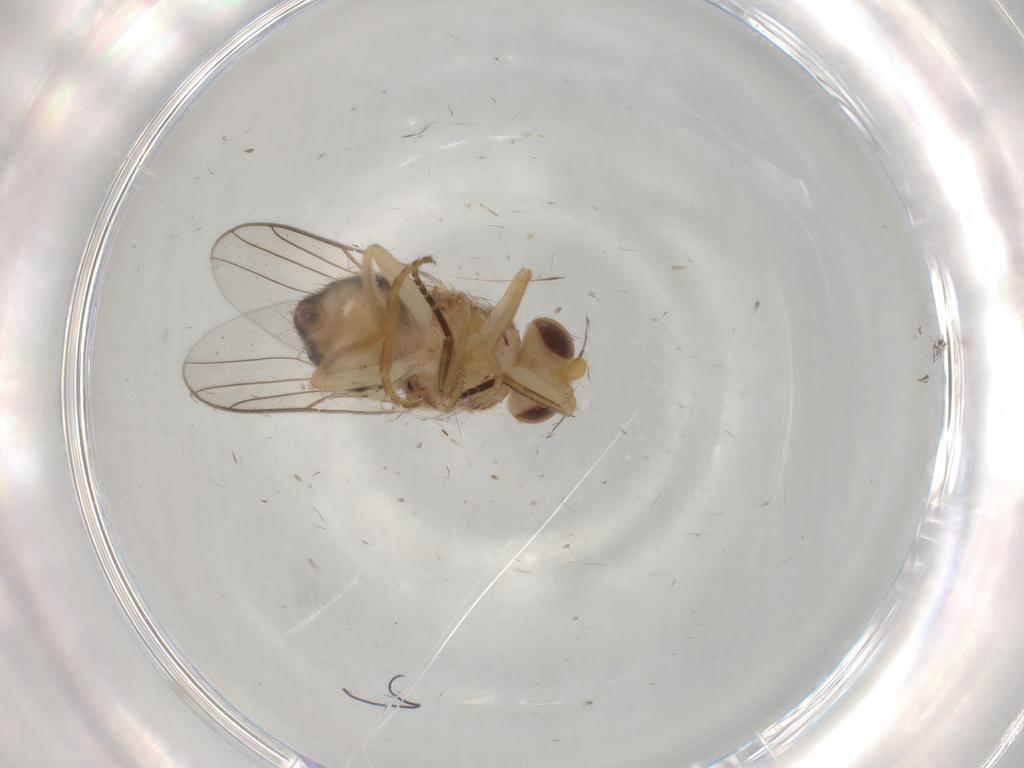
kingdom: Animalia
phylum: Arthropoda
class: Insecta
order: Diptera
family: Chloropidae
